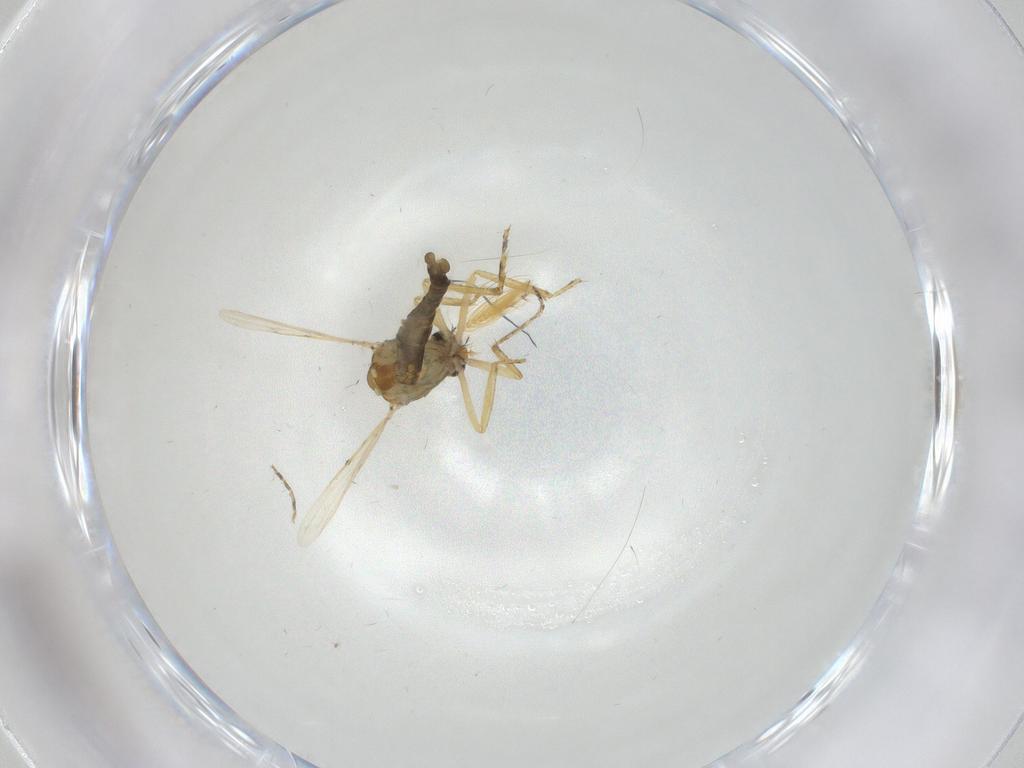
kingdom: Animalia
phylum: Arthropoda
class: Insecta
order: Diptera
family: Ceratopogonidae
